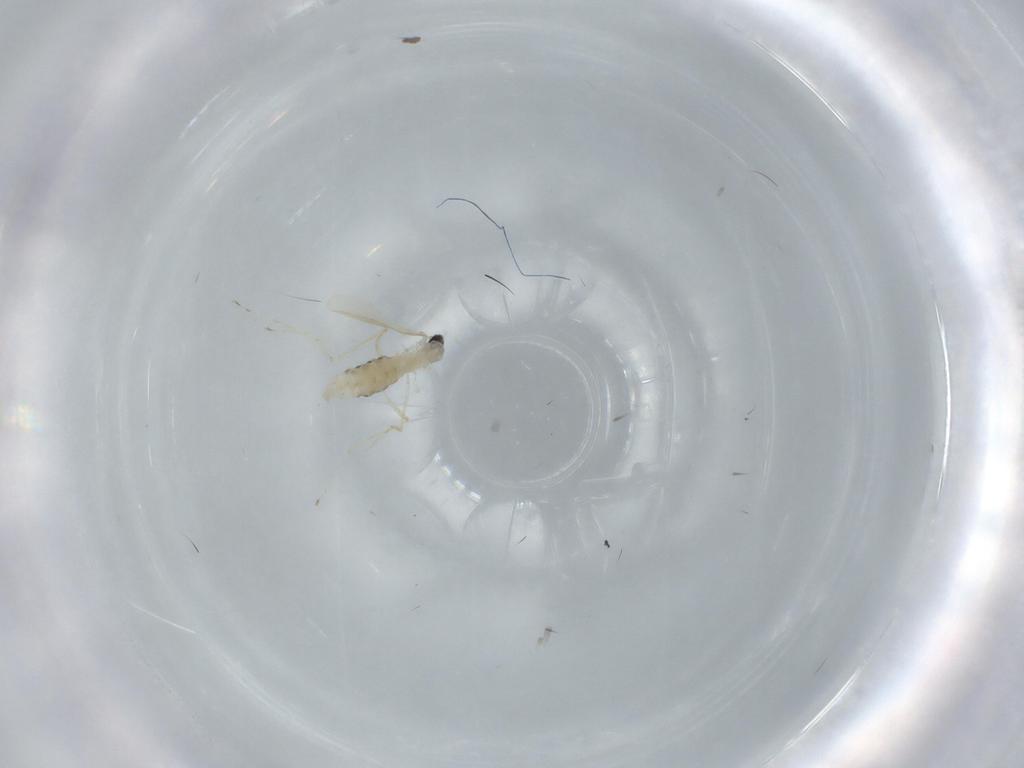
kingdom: Animalia
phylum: Arthropoda
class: Insecta
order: Diptera
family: Cecidomyiidae
